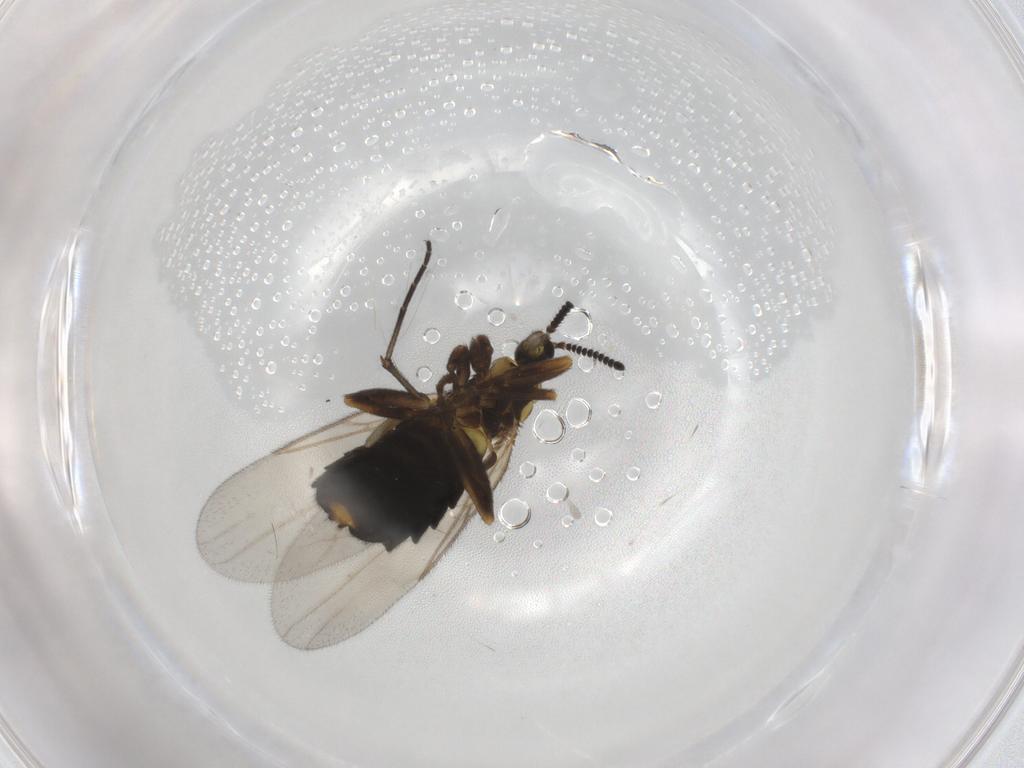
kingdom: Animalia
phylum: Arthropoda
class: Insecta
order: Diptera
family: Scatopsidae
